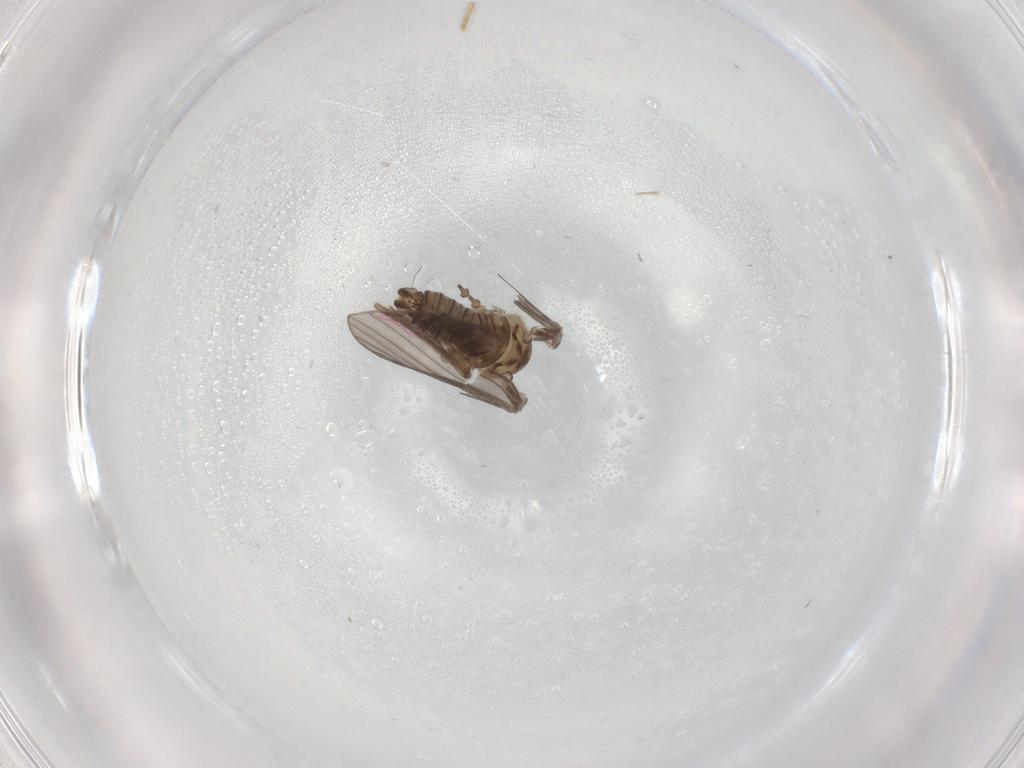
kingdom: Animalia
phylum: Arthropoda
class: Insecta
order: Diptera
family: Psychodidae
